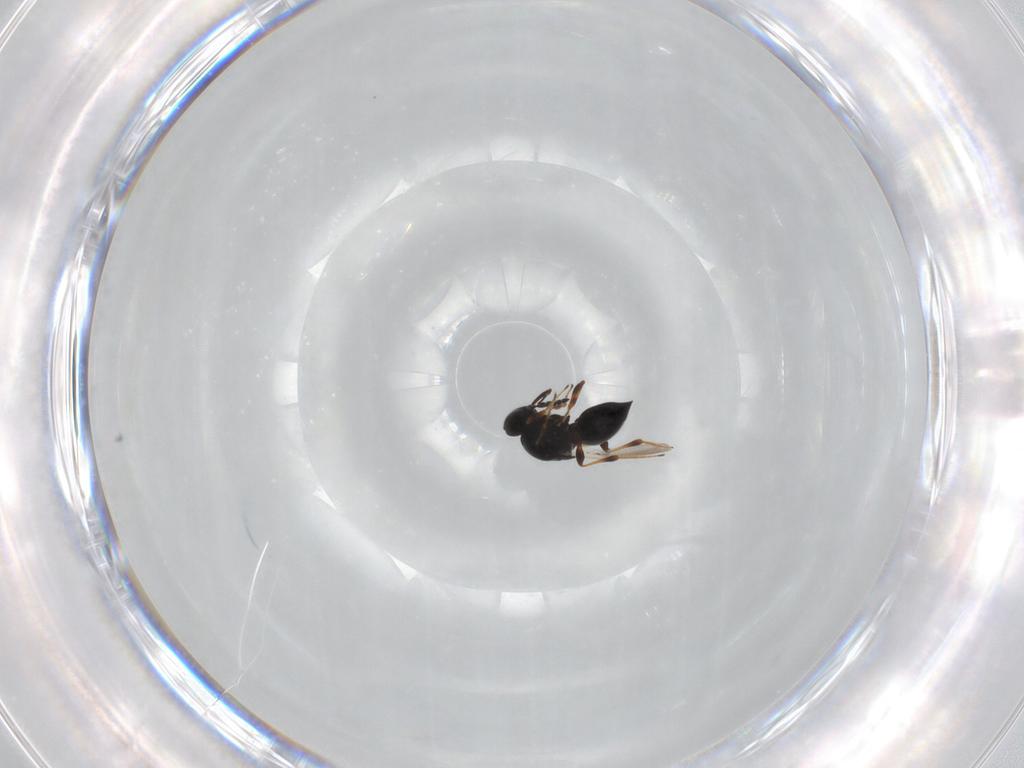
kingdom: Animalia
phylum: Arthropoda
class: Insecta
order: Hymenoptera
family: Platygastridae
